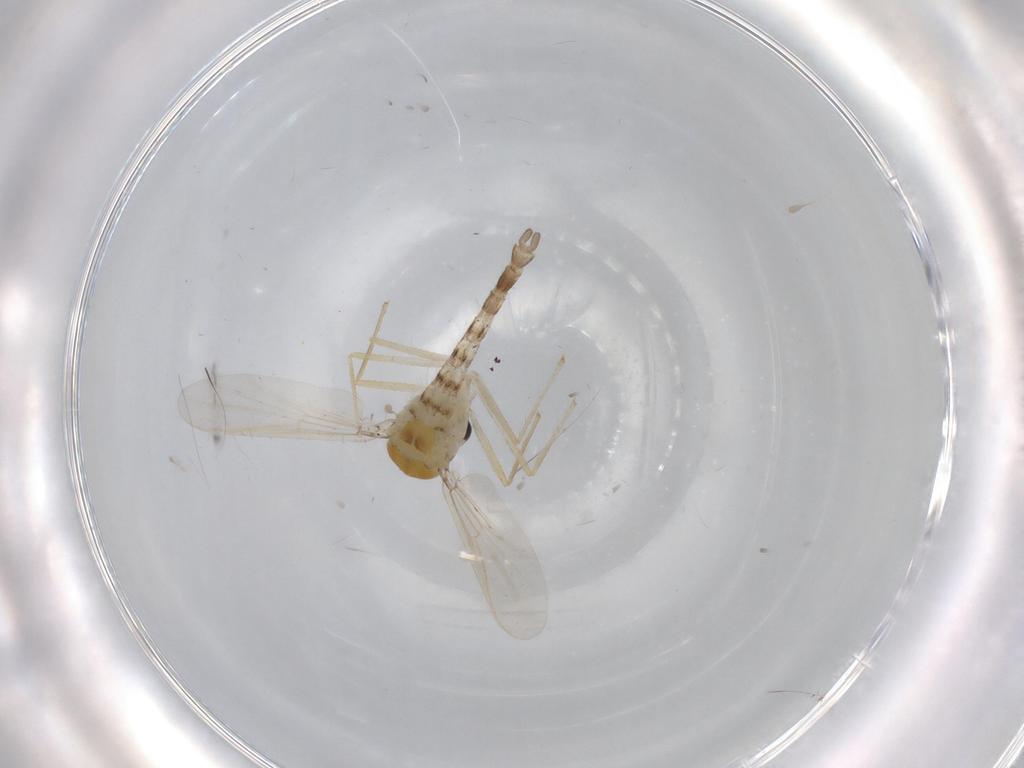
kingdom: Animalia
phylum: Arthropoda
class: Insecta
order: Diptera
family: Chironomidae
